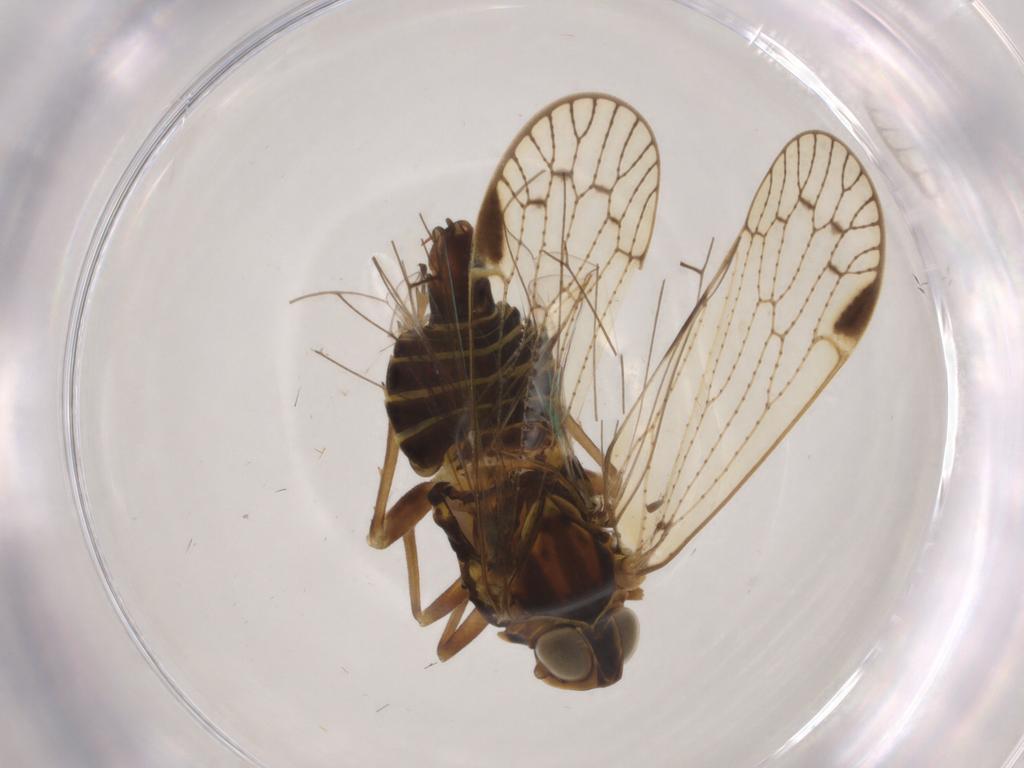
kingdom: Animalia
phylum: Arthropoda
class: Insecta
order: Hemiptera
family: Cixiidae
